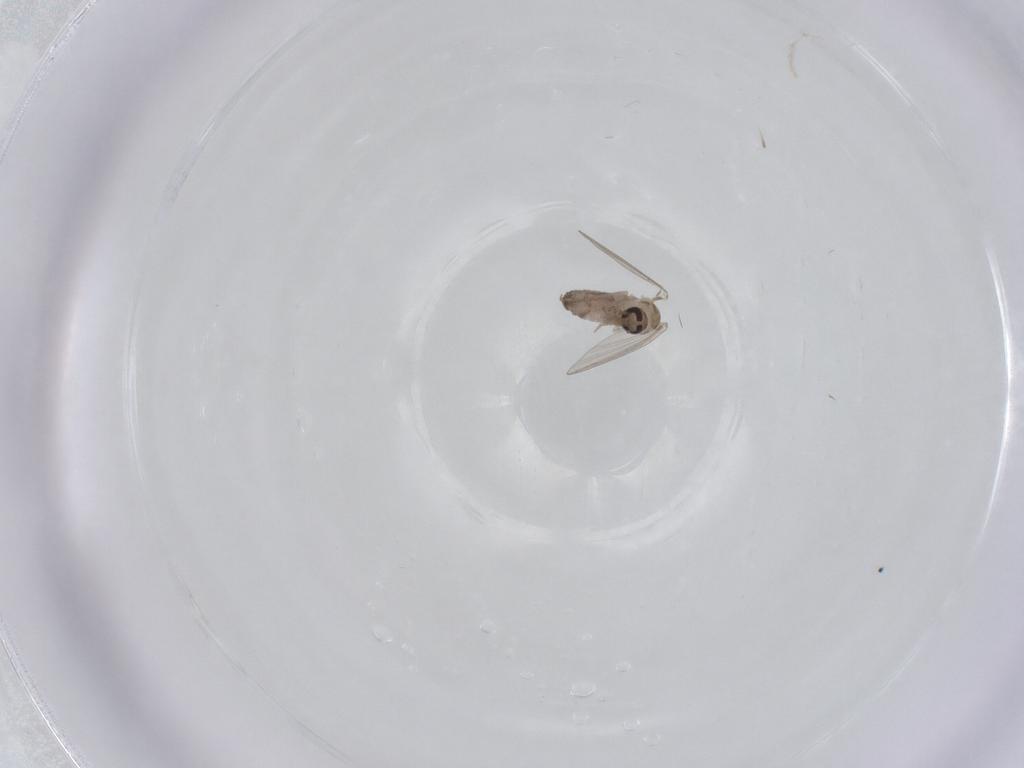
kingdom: Animalia
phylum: Arthropoda
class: Insecta
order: Diptera
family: Psychodidae
